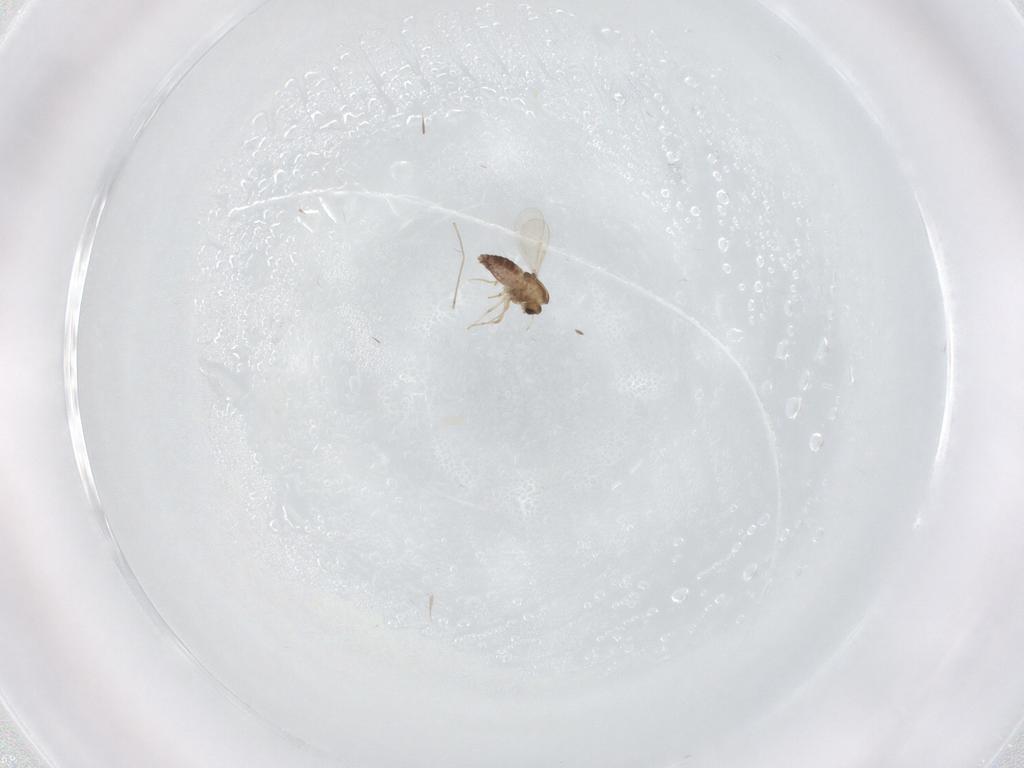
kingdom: Animalia
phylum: Arthropoda
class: Insecta
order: Diptera
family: Chironomidae
